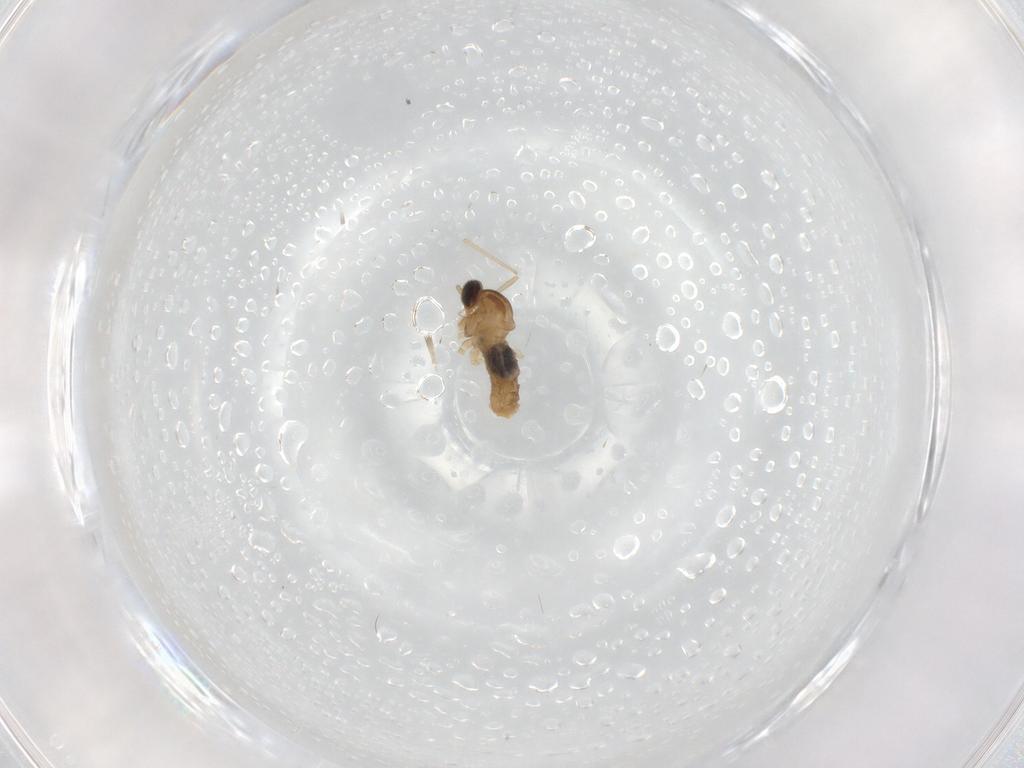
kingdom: Animalia
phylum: Arthropoda
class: Insecta
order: Diptera
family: Cecidomyiidae
